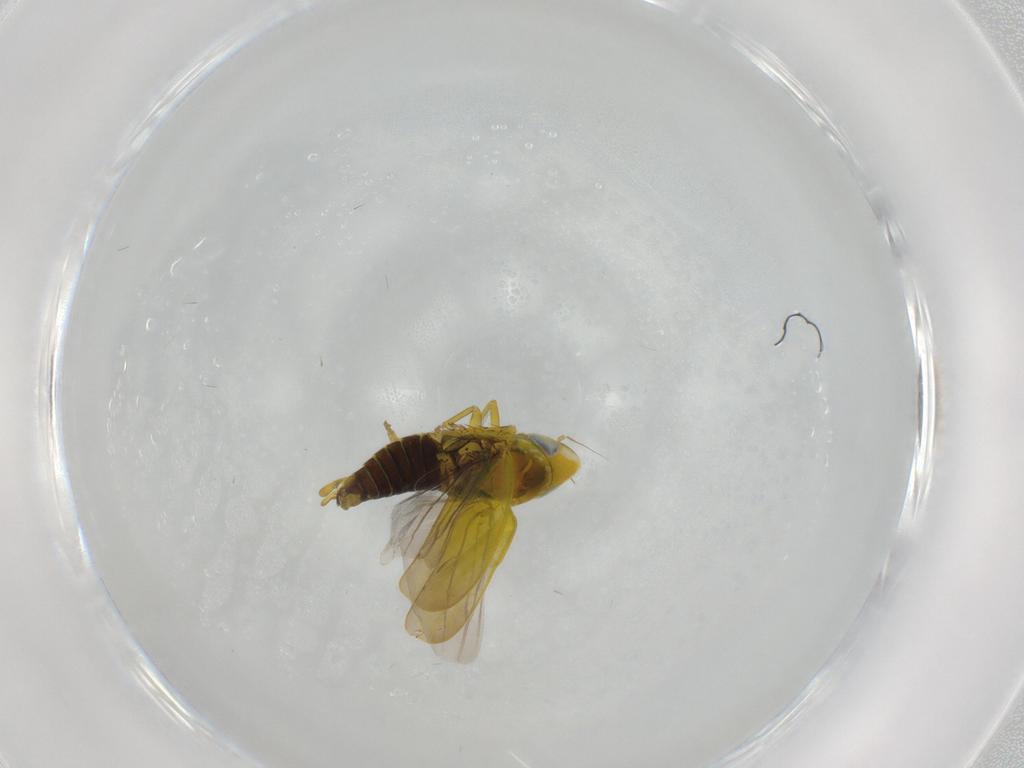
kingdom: Animalia
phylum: Arthropoda
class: Insecta
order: Hemiptera
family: Cicadellidae
